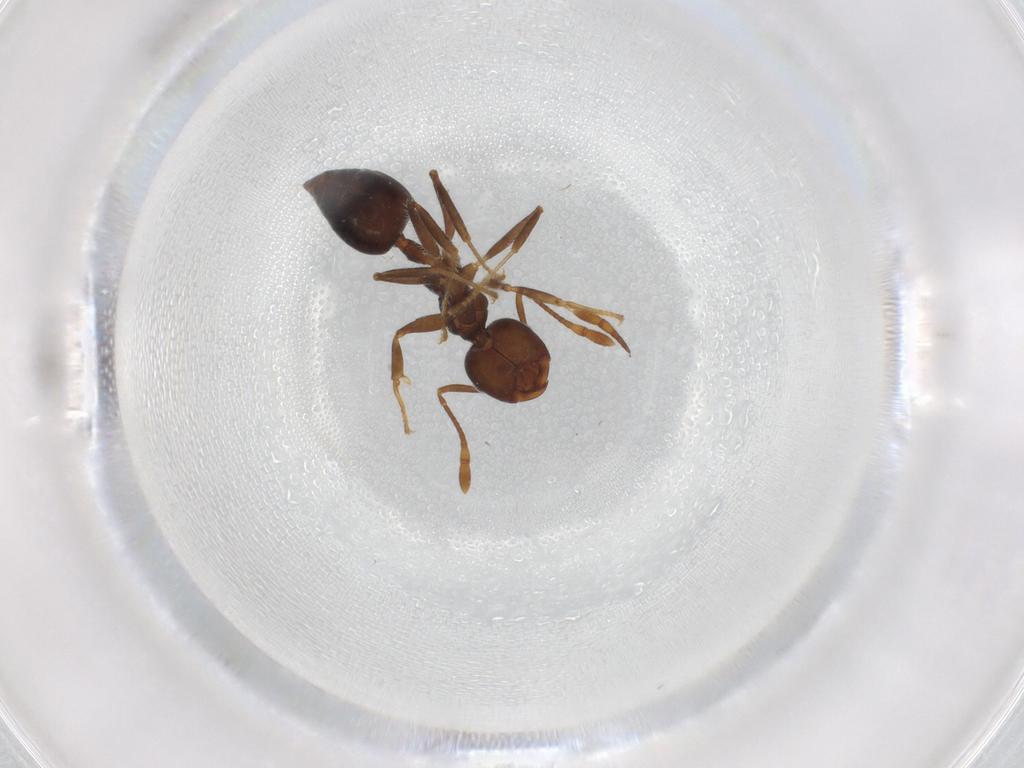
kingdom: Animalia
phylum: Arthropoda
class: Insecta
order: Hymenoptera
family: Formicidae
